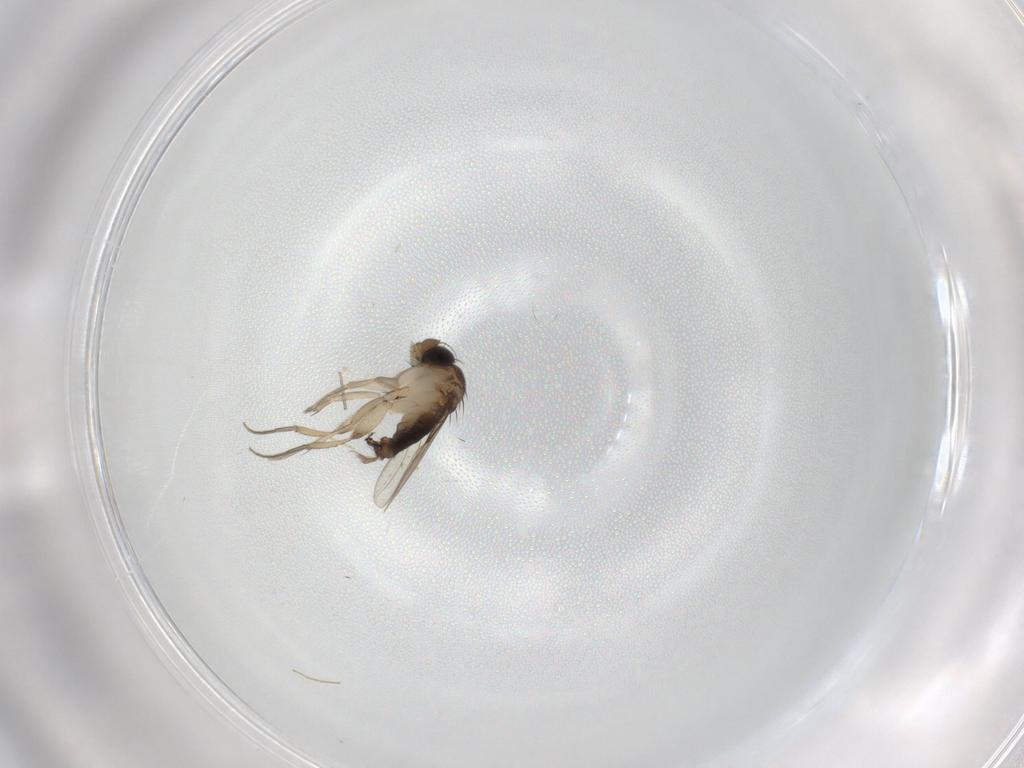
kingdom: Animalia
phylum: Arthropoda
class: Insecta
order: Diptera
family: Chironomidae
